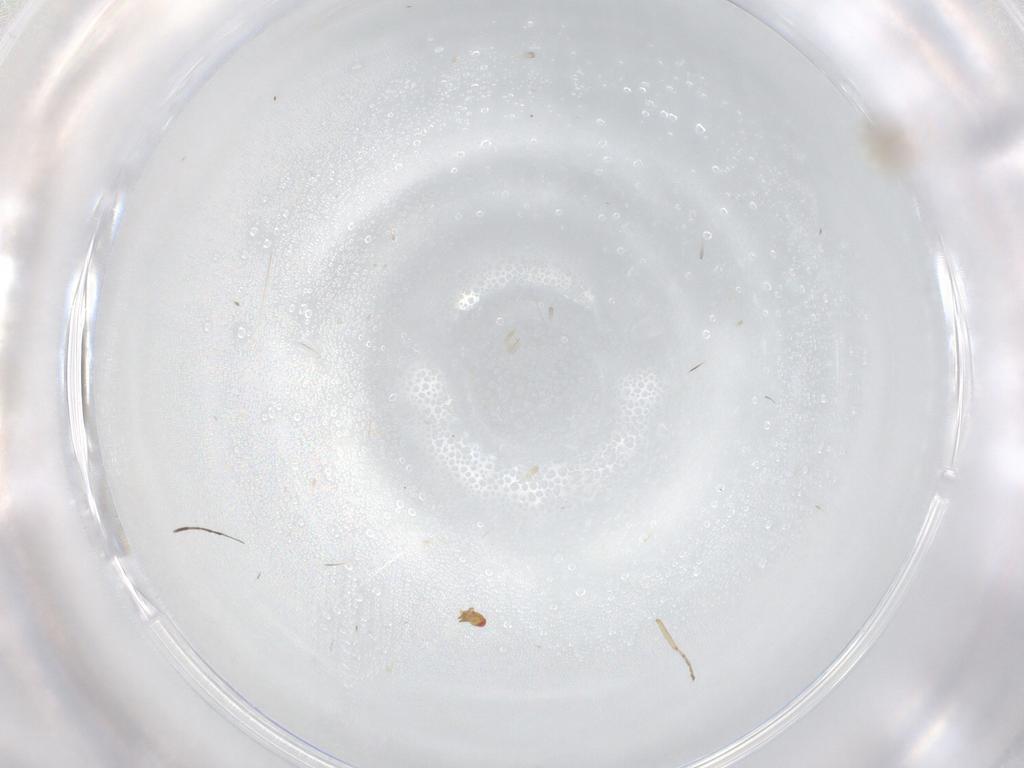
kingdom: Animalia
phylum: Arthropoda
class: Insecta
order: Hymenoptera
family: Trichogrammatidae
